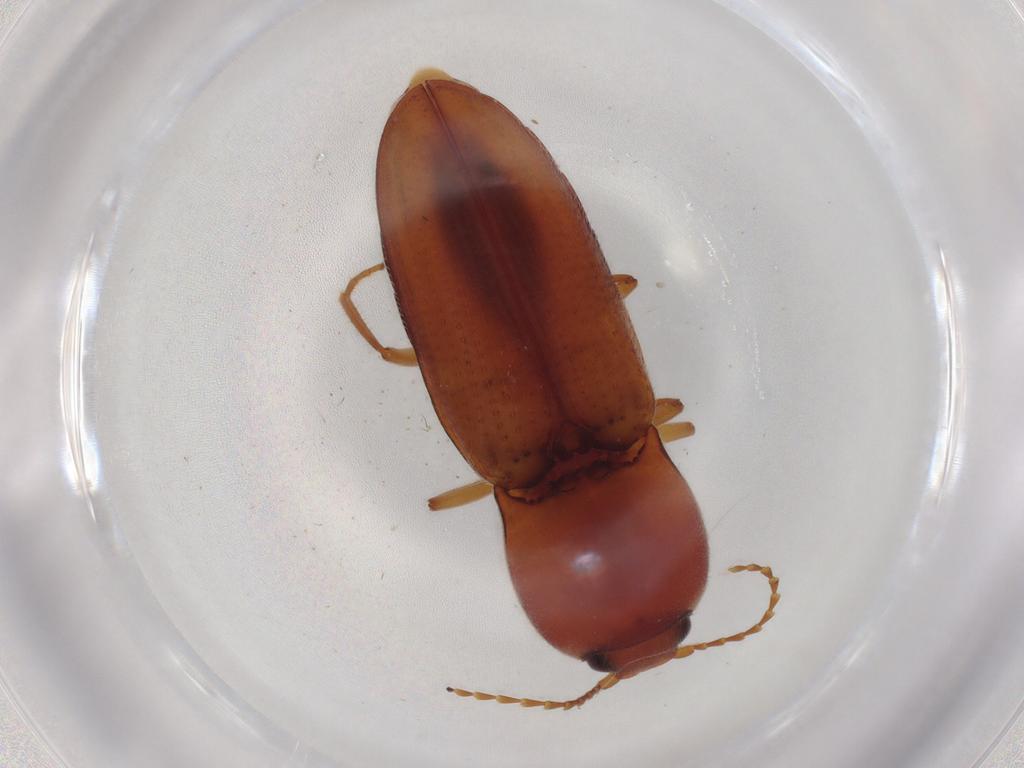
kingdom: Animalia
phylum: Arthropoda
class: Insecta
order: Coleoptera
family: Elateridae
